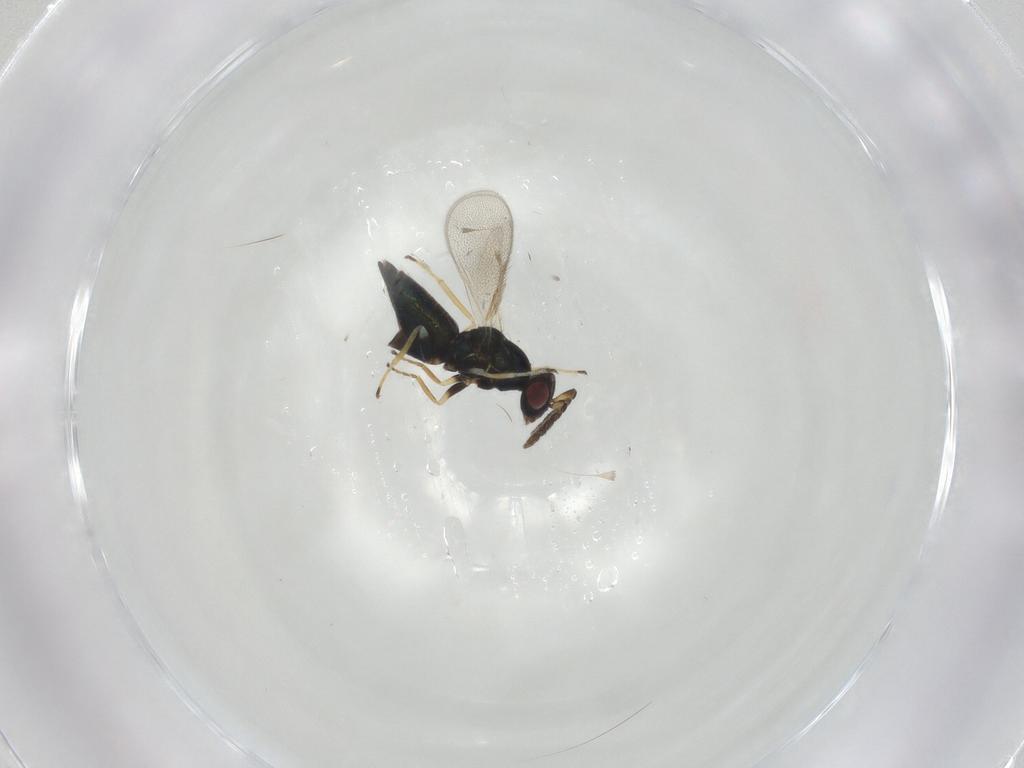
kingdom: Animalia
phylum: Arthropoda
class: Insecta
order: Hymenoptera
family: Eulophidae
